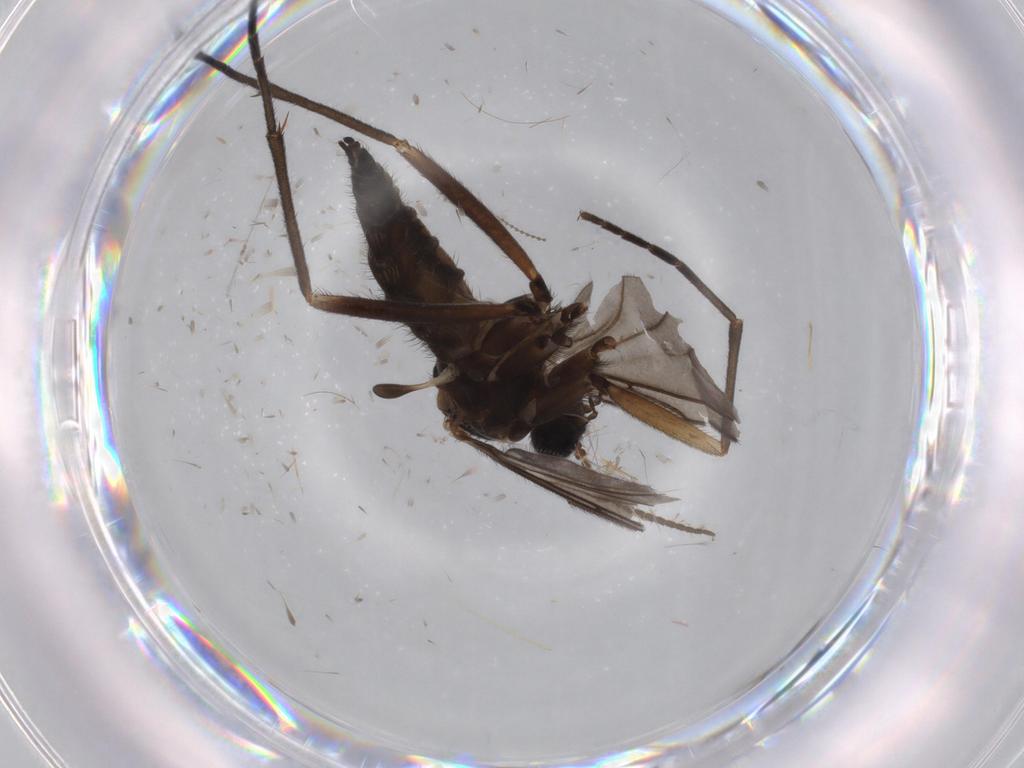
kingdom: Animalia
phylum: Arthropoda
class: Insecta
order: Diptera
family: Sciaridae
